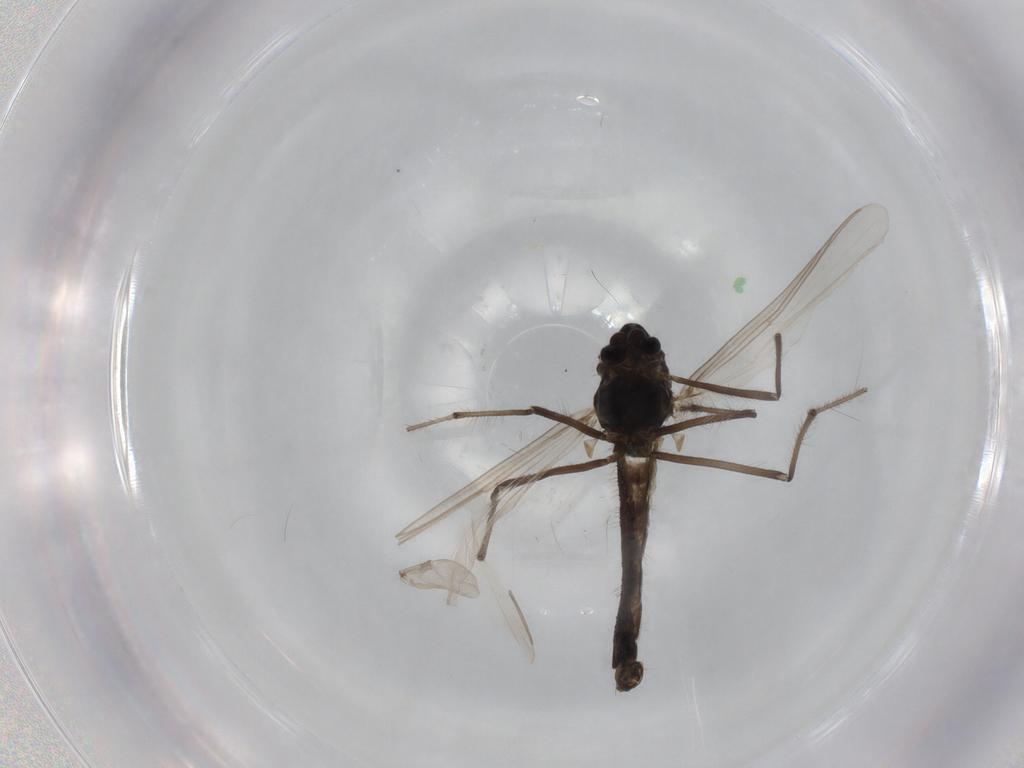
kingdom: Animalia
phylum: Arthropoda
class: Insecta
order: Diptera
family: Chironomidae
